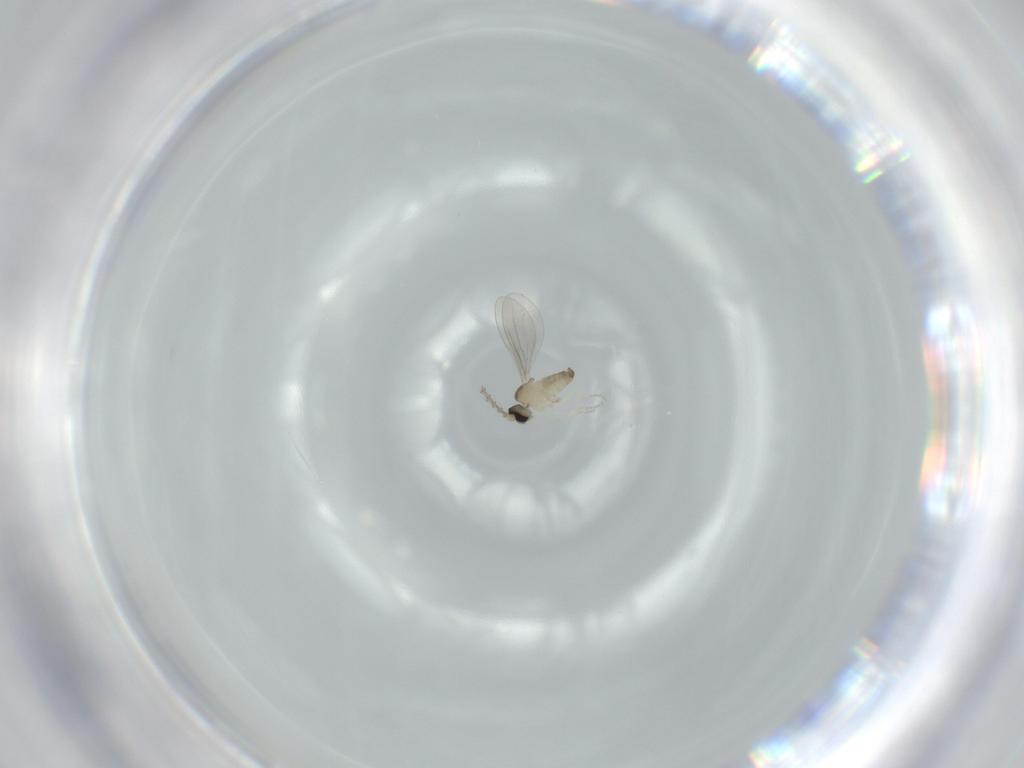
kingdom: Animalia
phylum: Arthropoda
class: Insecta
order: Diptera
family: Cecidomyiidae
